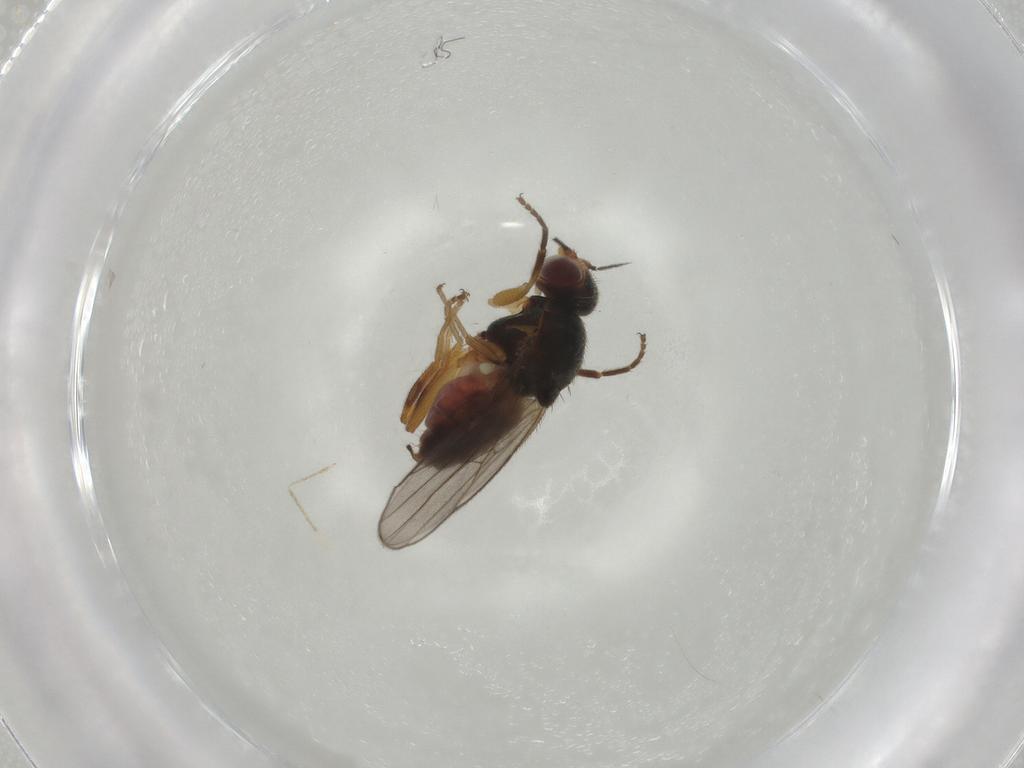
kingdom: Animalia
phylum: Arthropoda
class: Insecta
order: Diptera
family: Chloropidae
